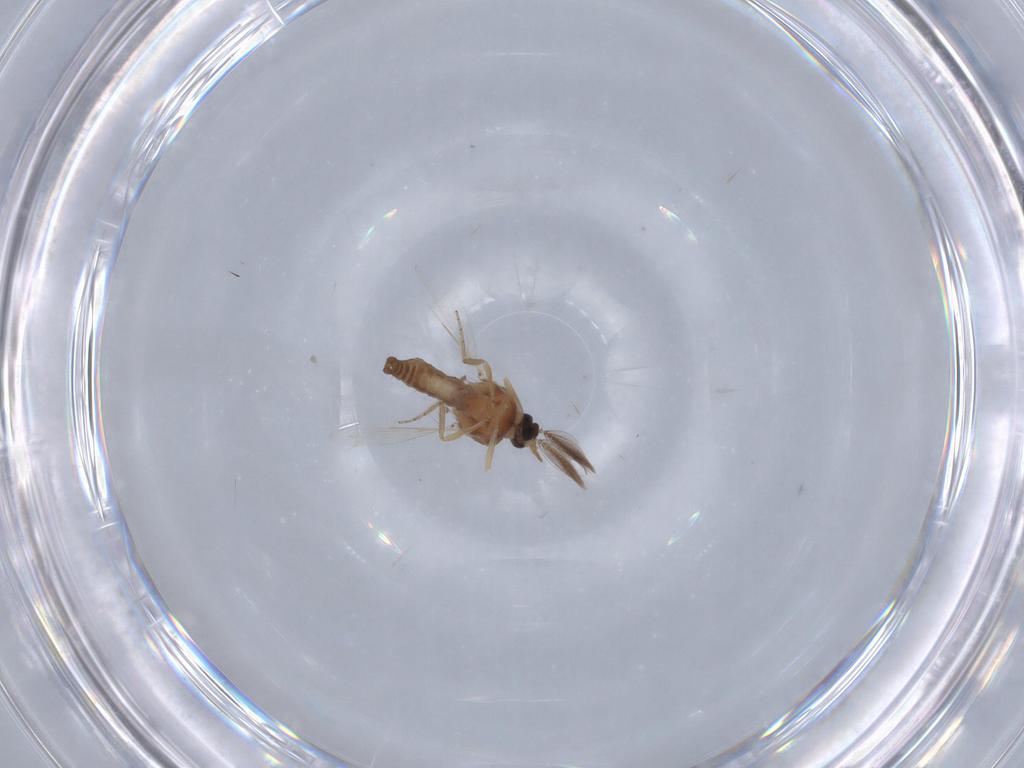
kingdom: Animalia
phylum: Arthropoda
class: Insecta
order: Diptera
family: Ceratopogonidae
